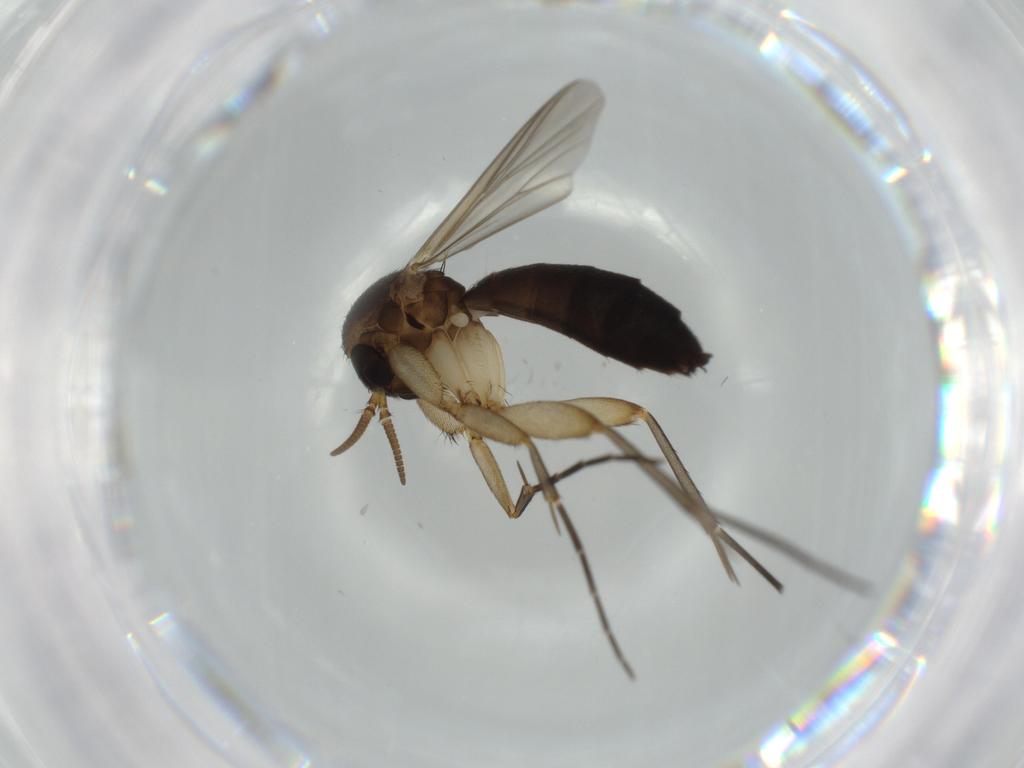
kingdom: Animalia
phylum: Arthropoda
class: Insecta
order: Diptera
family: Cecidomyiidae
